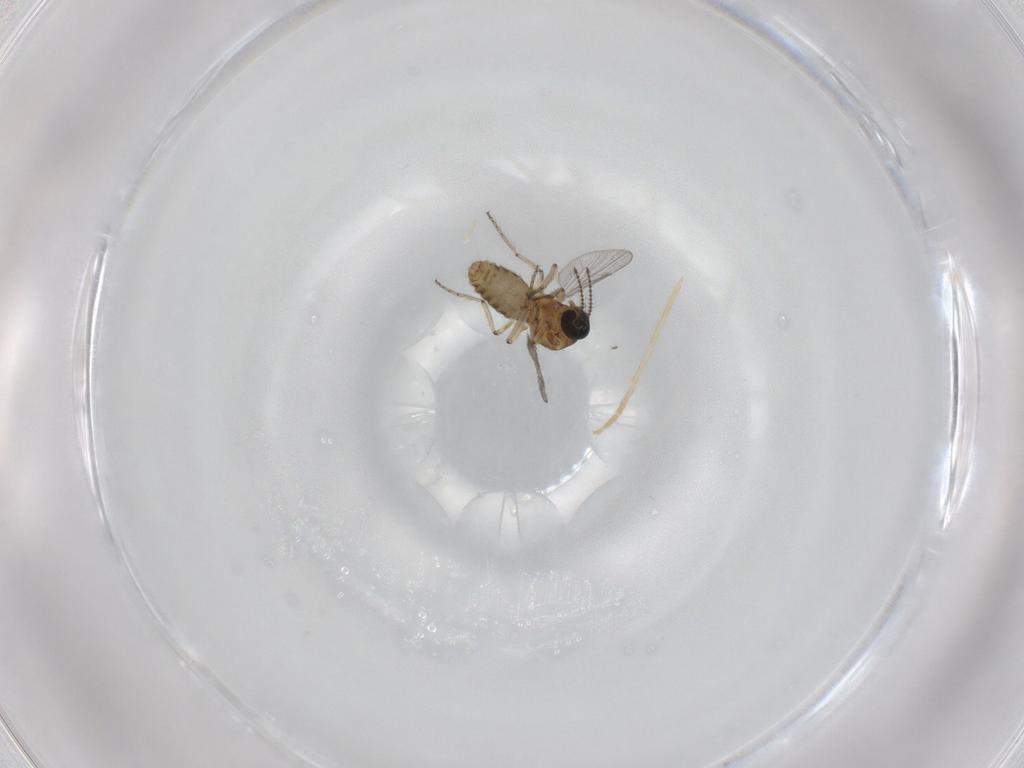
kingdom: Animalia
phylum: Arthropoda
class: Insecta
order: Diptera
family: Ceratopogonidae
